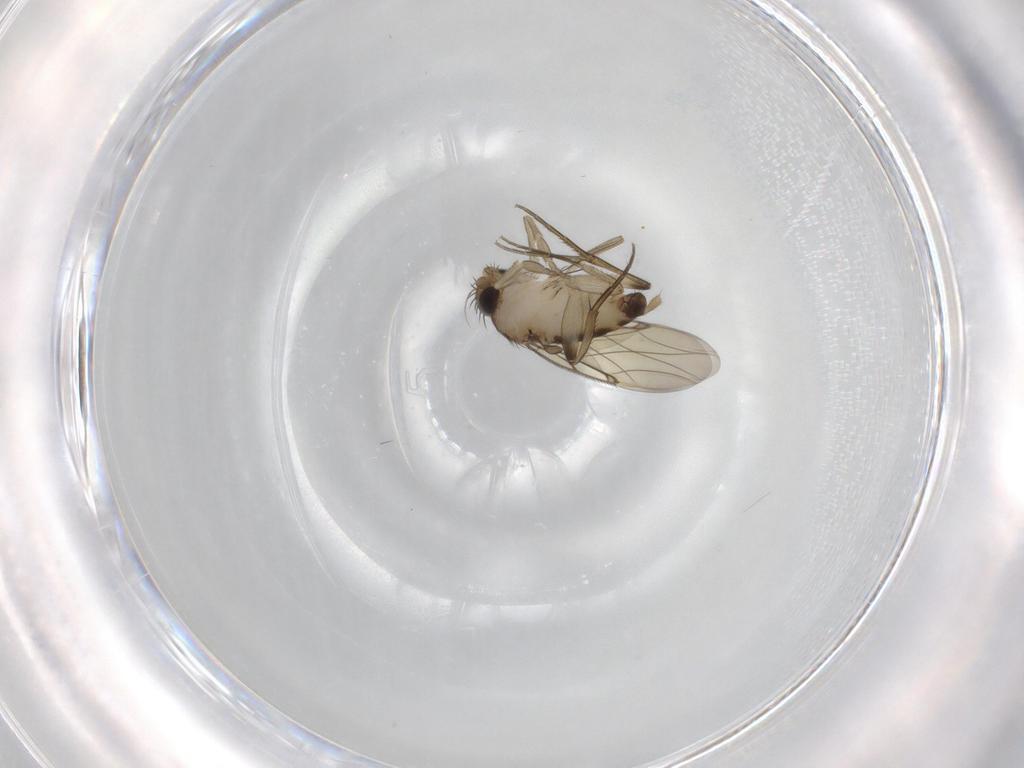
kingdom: Animalia
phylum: Arthropoda
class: Insecta
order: Diptera
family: Phoridae
